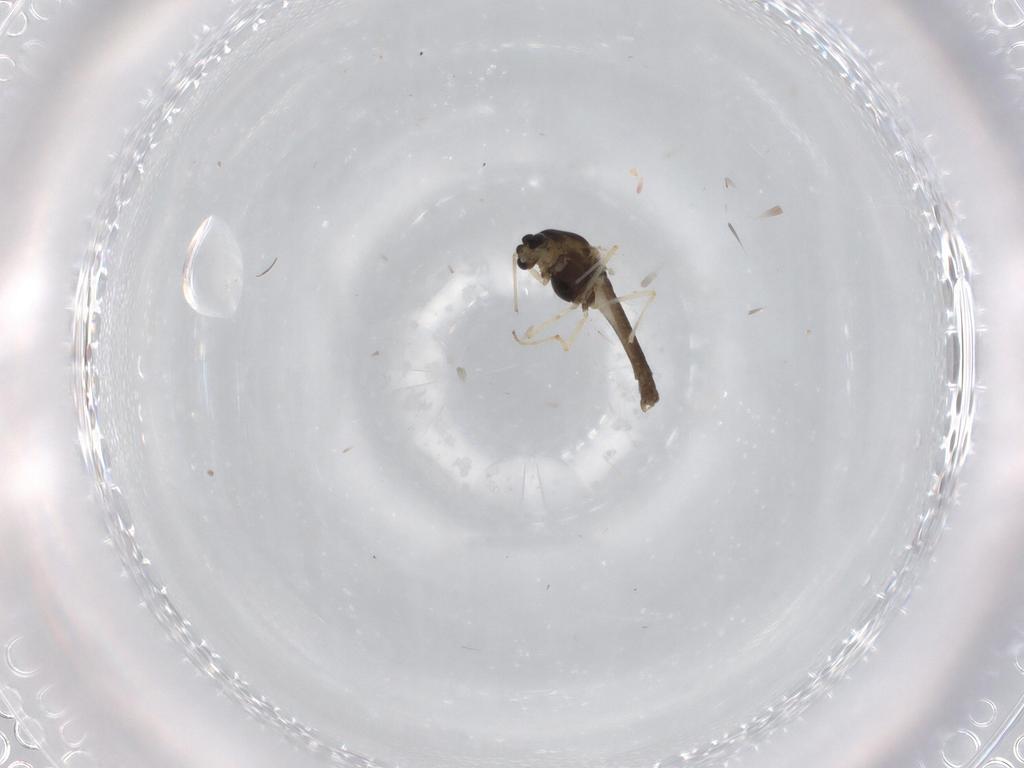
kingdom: Animalia
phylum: Arthropoda
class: Insecta
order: Diptera
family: Chironomidae
